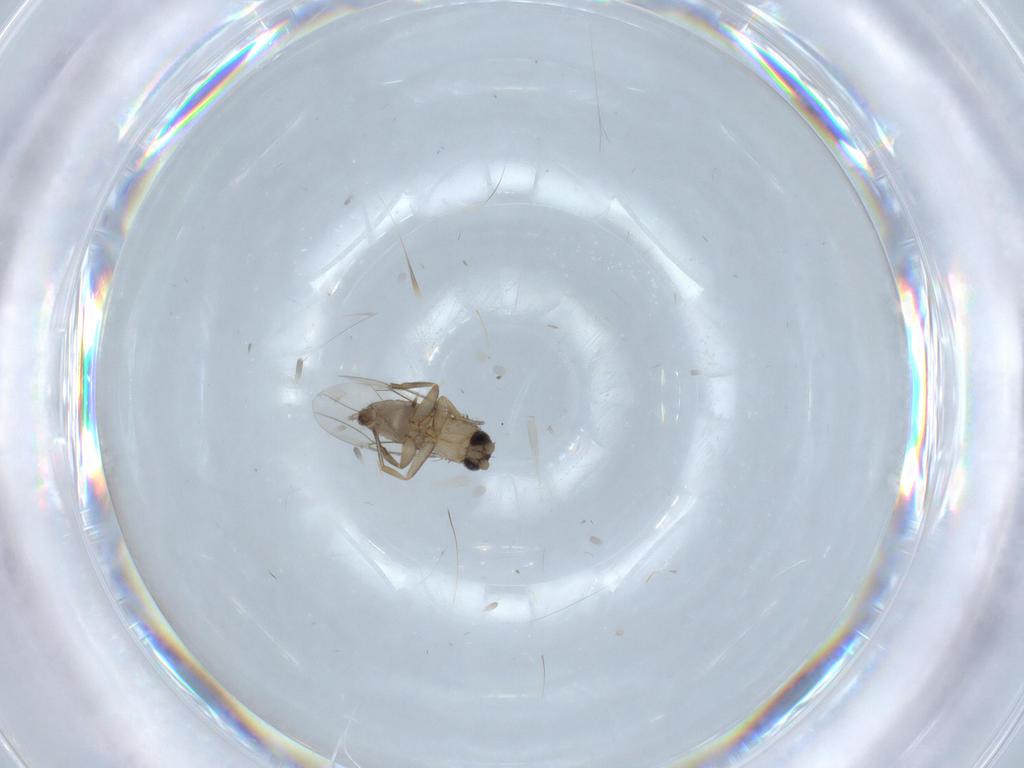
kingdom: Animalia
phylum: Arthropoda
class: Insecta
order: Diptera
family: Phoridae
